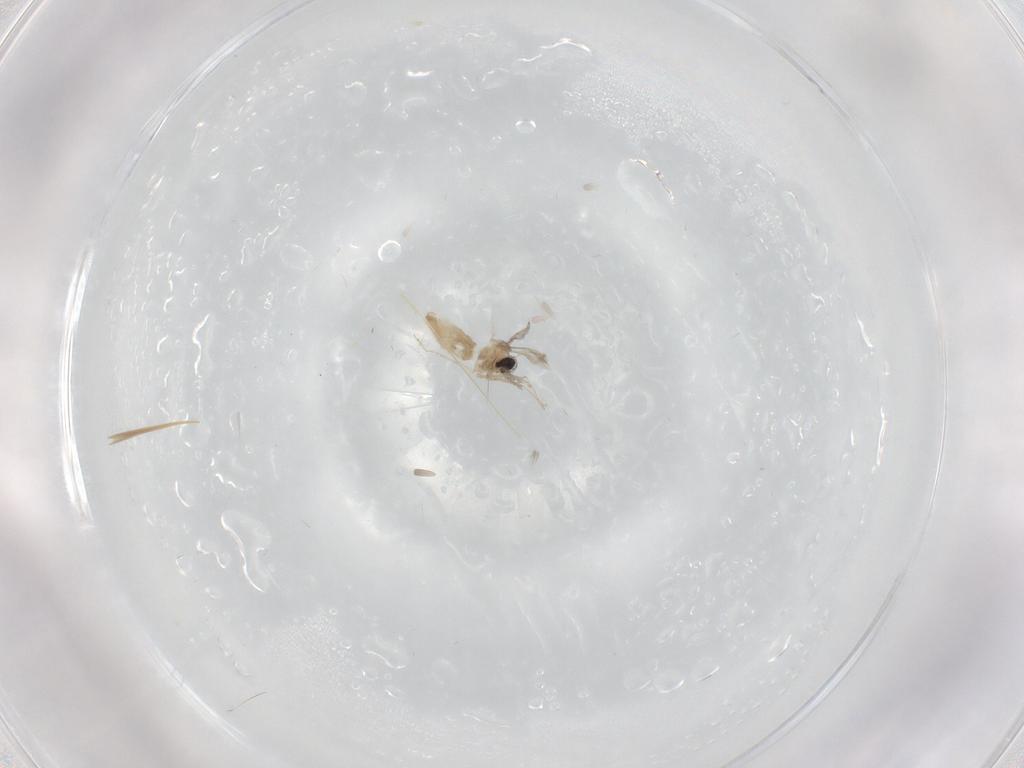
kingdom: Animalia
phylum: Arthropoda
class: Insecta
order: Diptera
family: Cecidomyiidae
